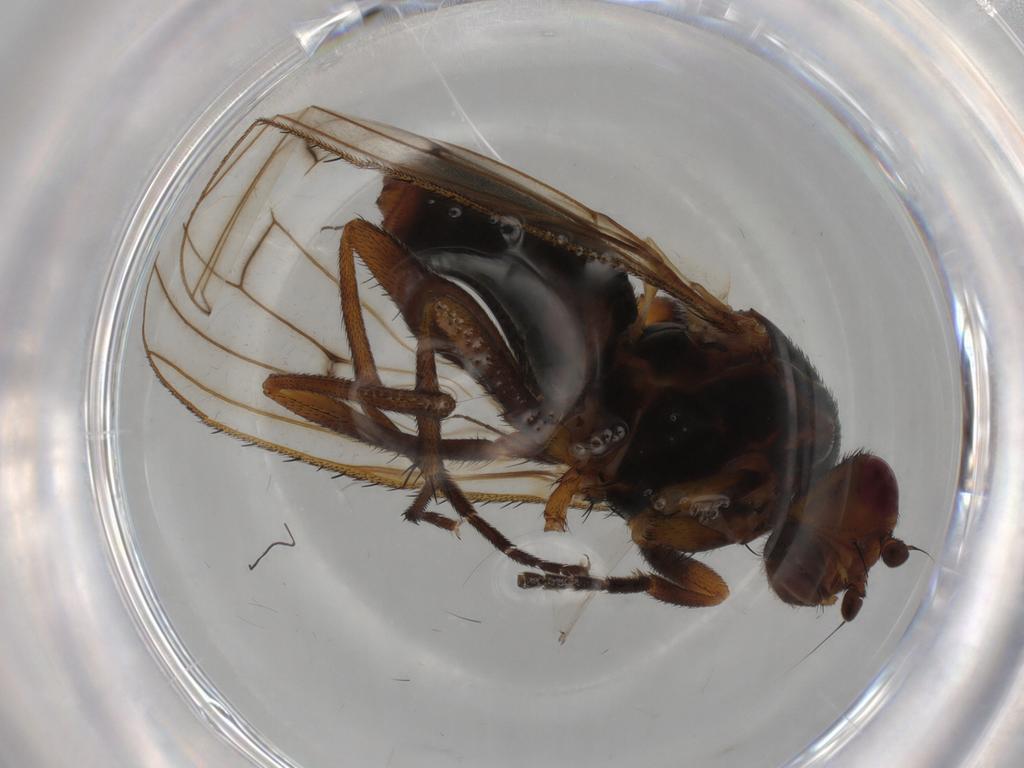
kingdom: Animalia
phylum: Arthropoda
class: Insecta
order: Diptera
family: Heleomyzidae
